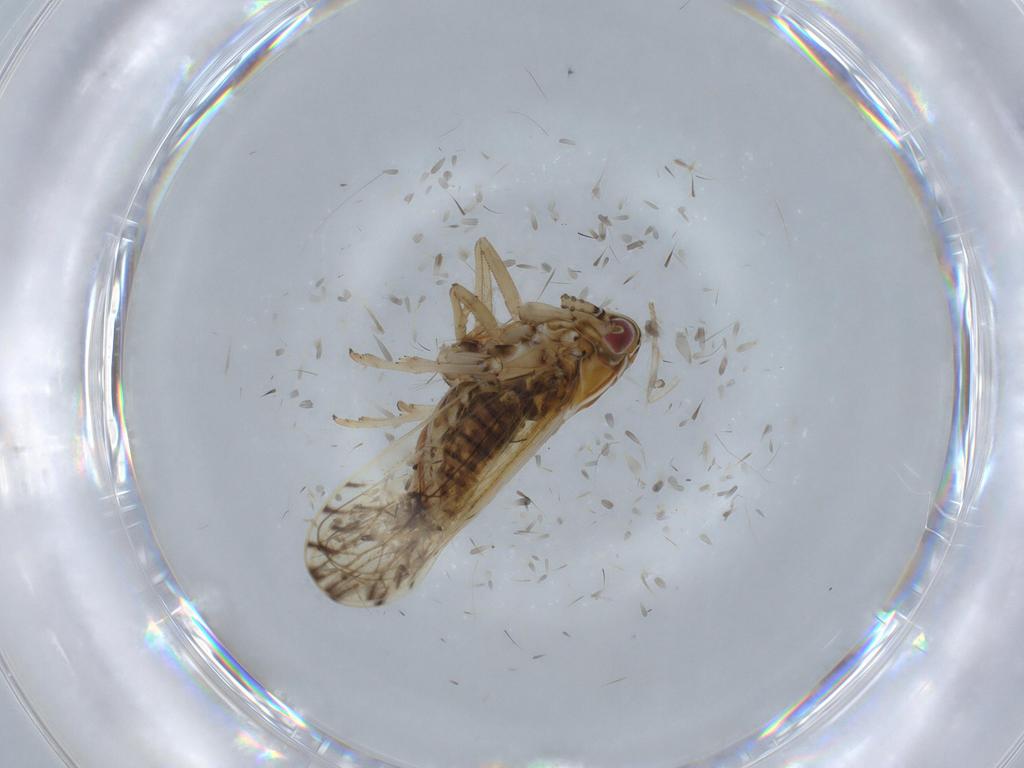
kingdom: Animalia
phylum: Arthropoda
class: Insecta
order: Hemiptera
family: Delphacidae
